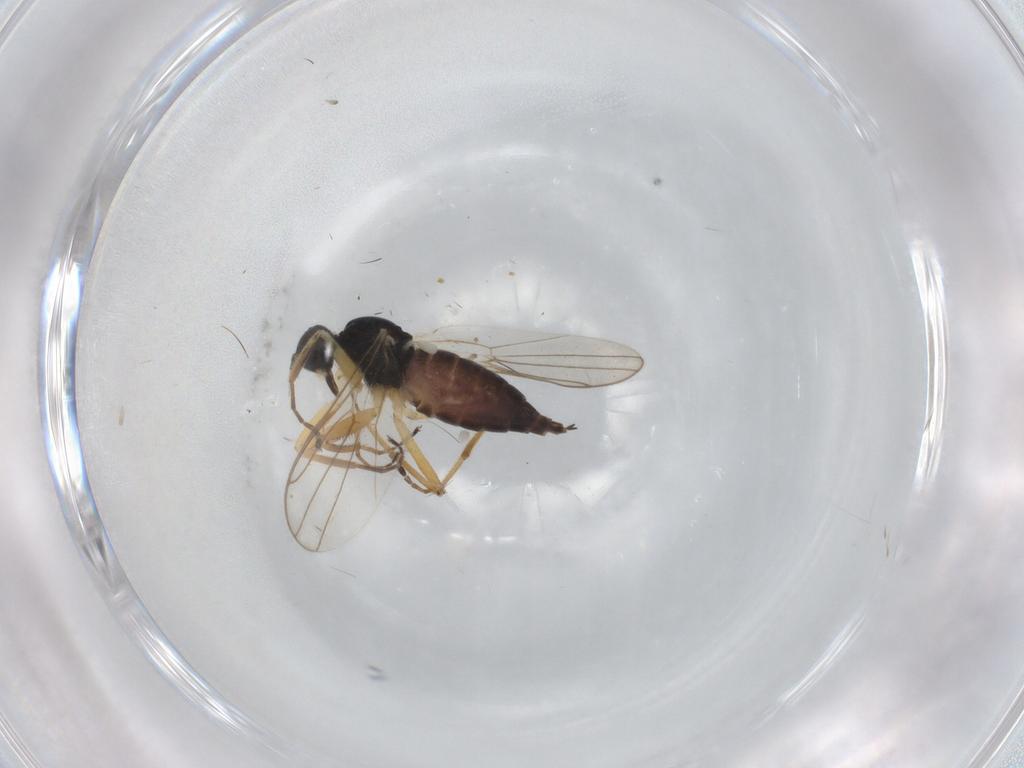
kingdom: Animalia
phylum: Arthropoda
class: Insecta
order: Diptera
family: Hybotidae
